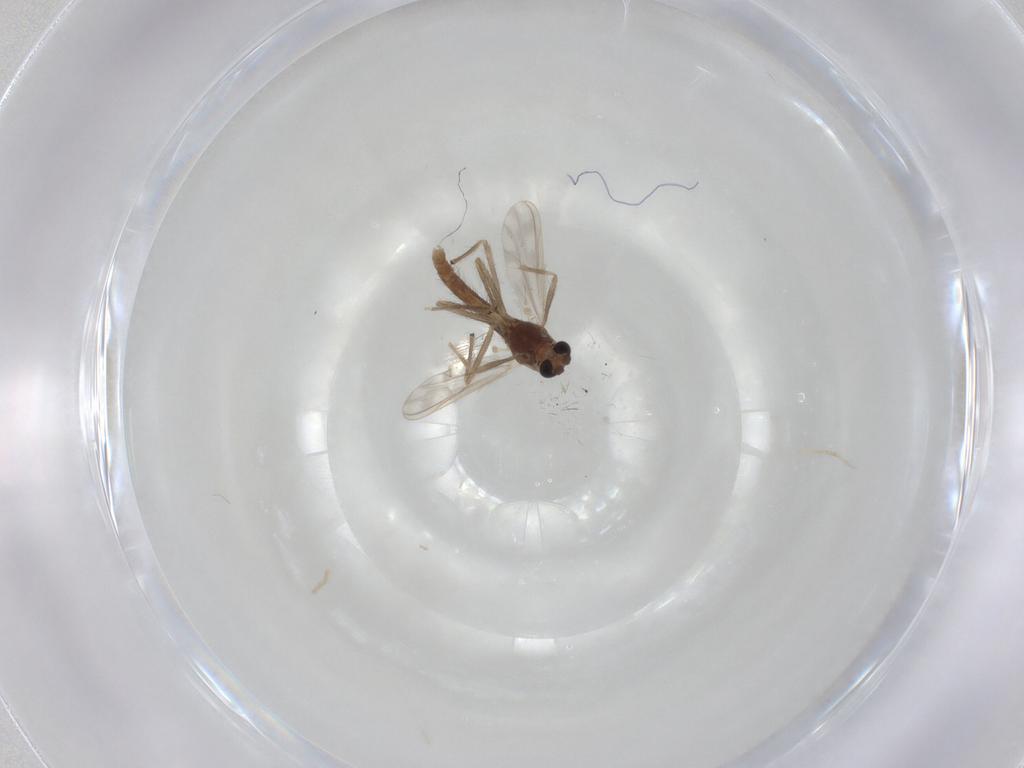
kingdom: Animalia
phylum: Arthropoda
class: Insecta
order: Diptera
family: Chironomidae
